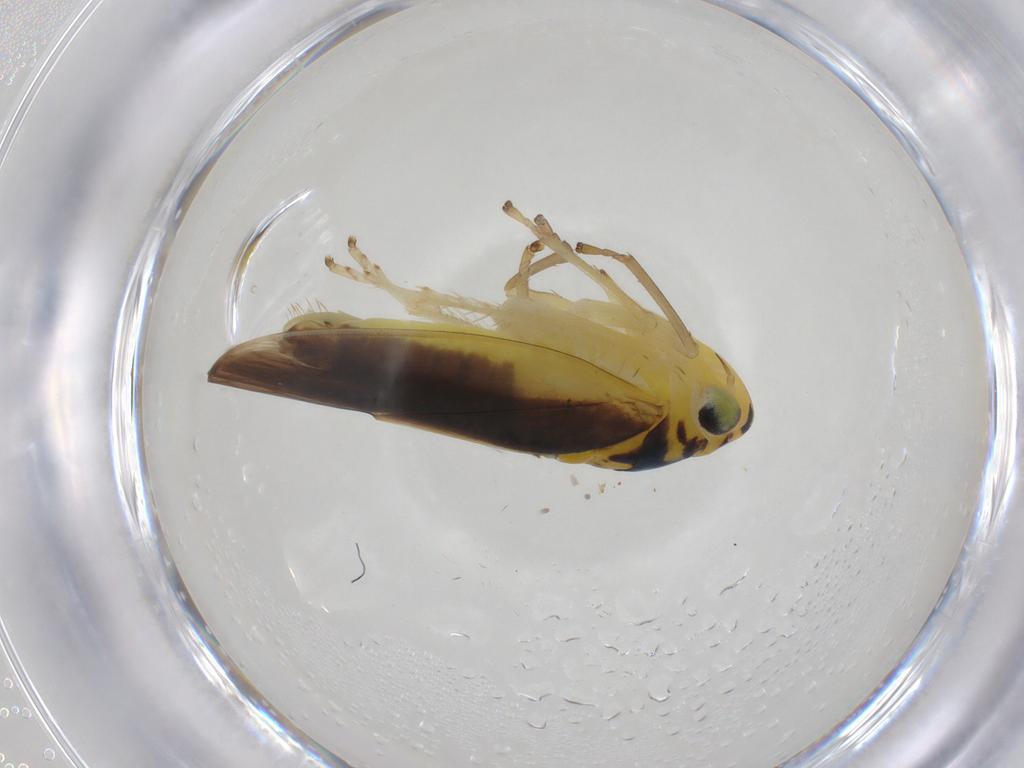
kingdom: Animalia
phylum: Arthropoda
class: Insecta
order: Hemiptera
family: Cicadellidae
